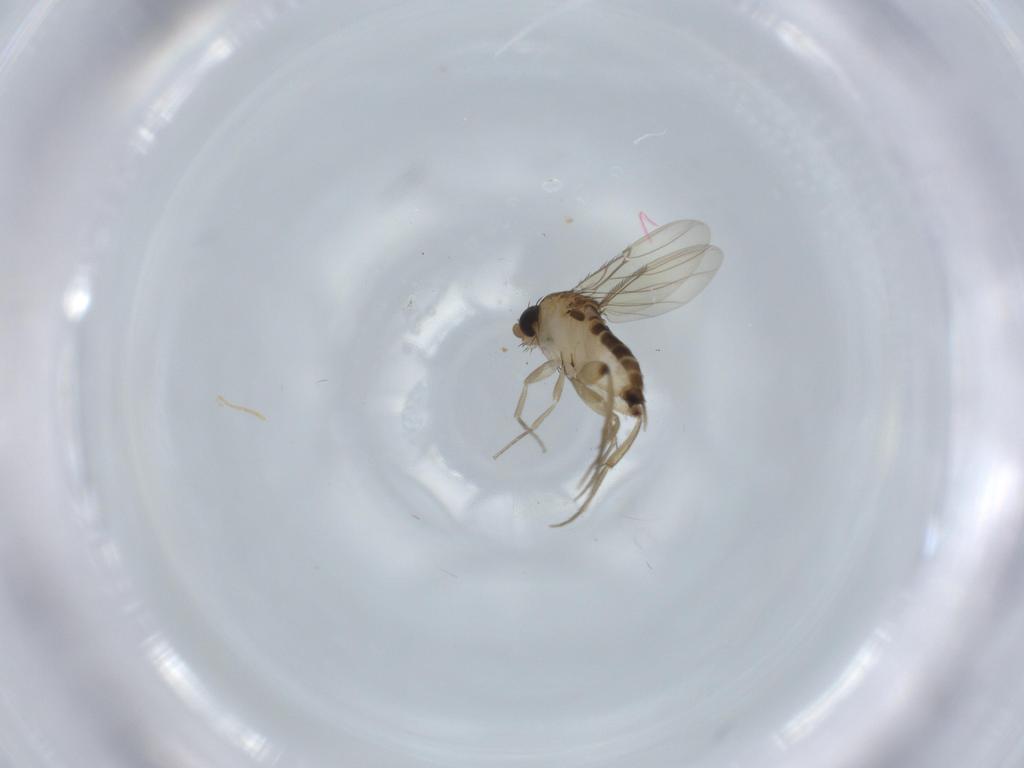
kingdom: Animalia
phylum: Arthropoda
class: Insecta
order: Diptera
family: Phoridae
